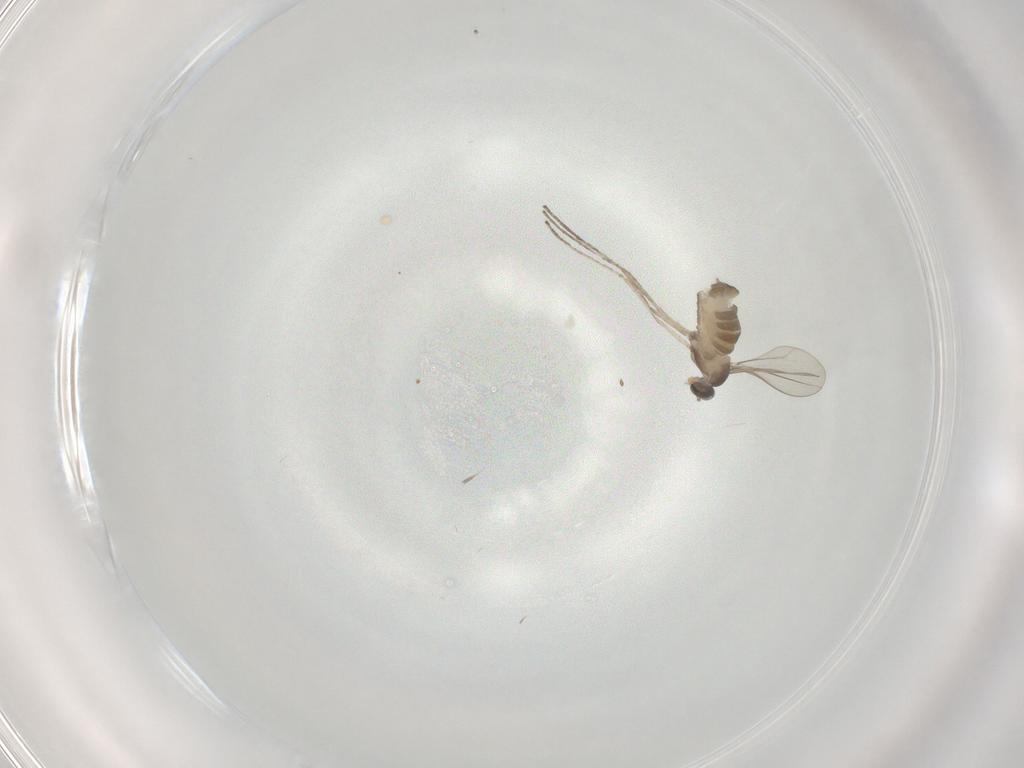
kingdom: Animalia
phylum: Arthropoda
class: Insecta
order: Diptera
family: Cecidomyiidae
